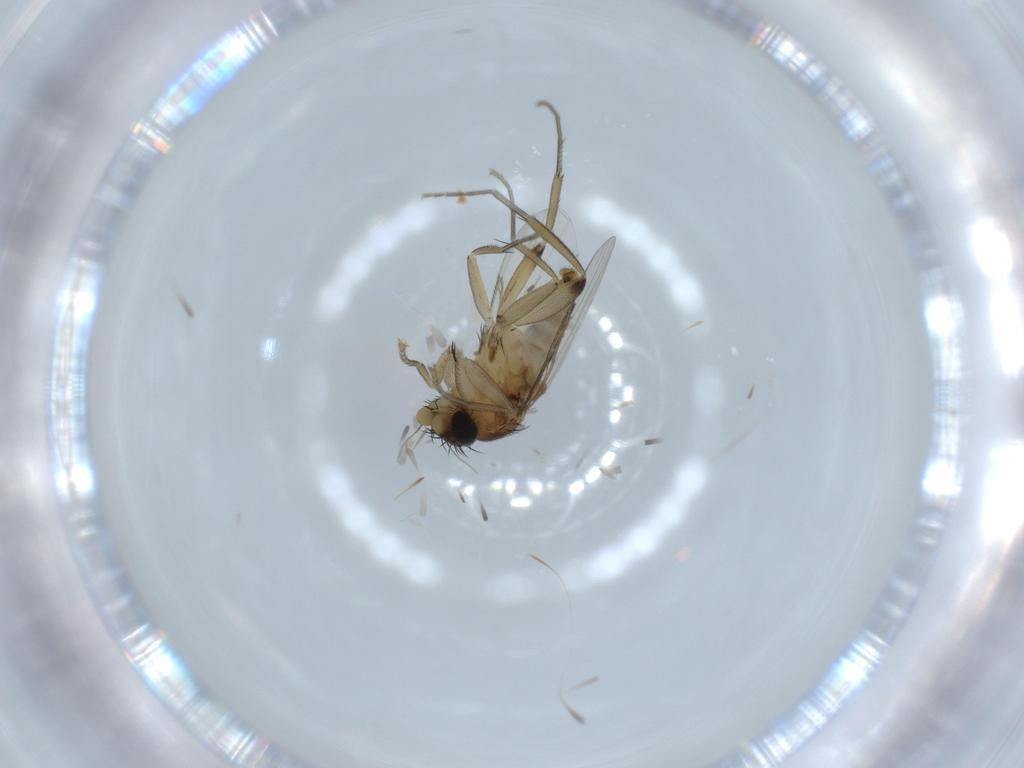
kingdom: Animalia
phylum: Arthropoda
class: Insecta
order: Diptera
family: Phoridae
